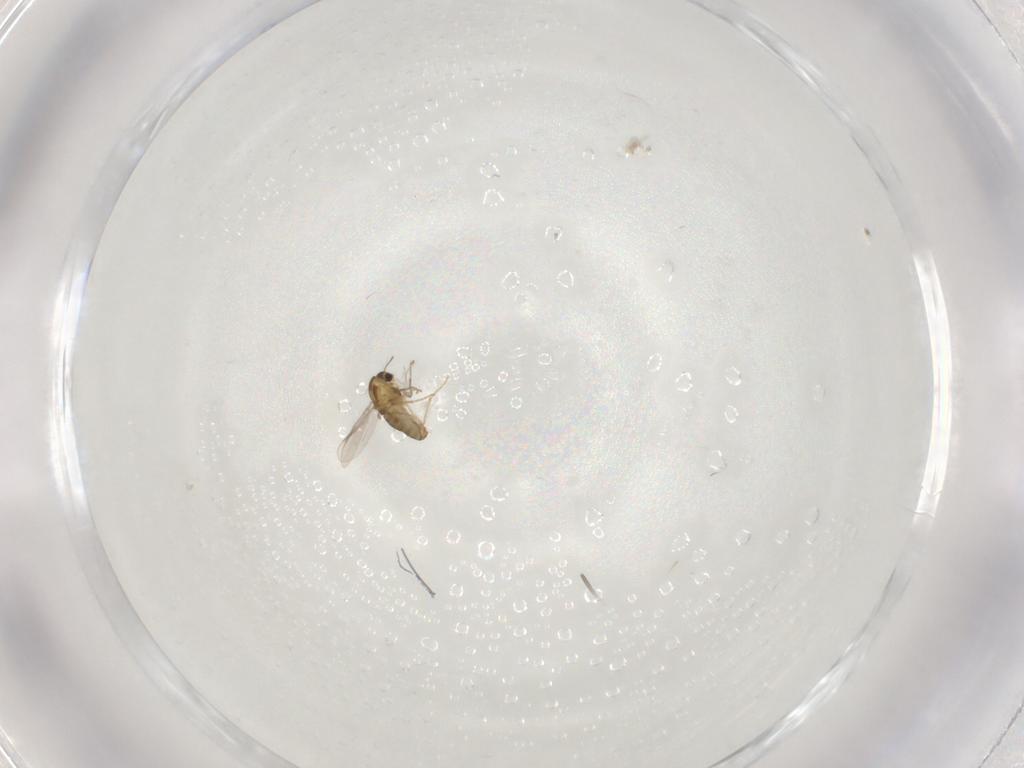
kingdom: Animalia
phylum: Arthropoda
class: Insecta
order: Diptera
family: Chironomidae
